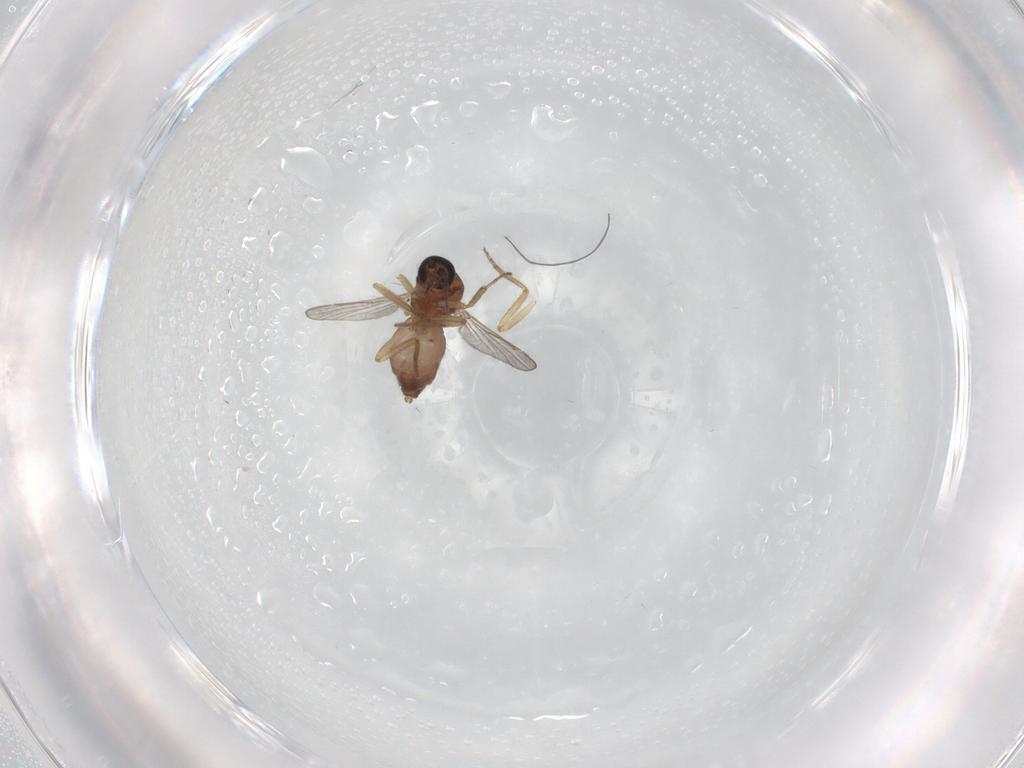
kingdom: Animalia
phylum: Arthropoda
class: Insecta
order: Diptera
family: Ceratopogonidae
